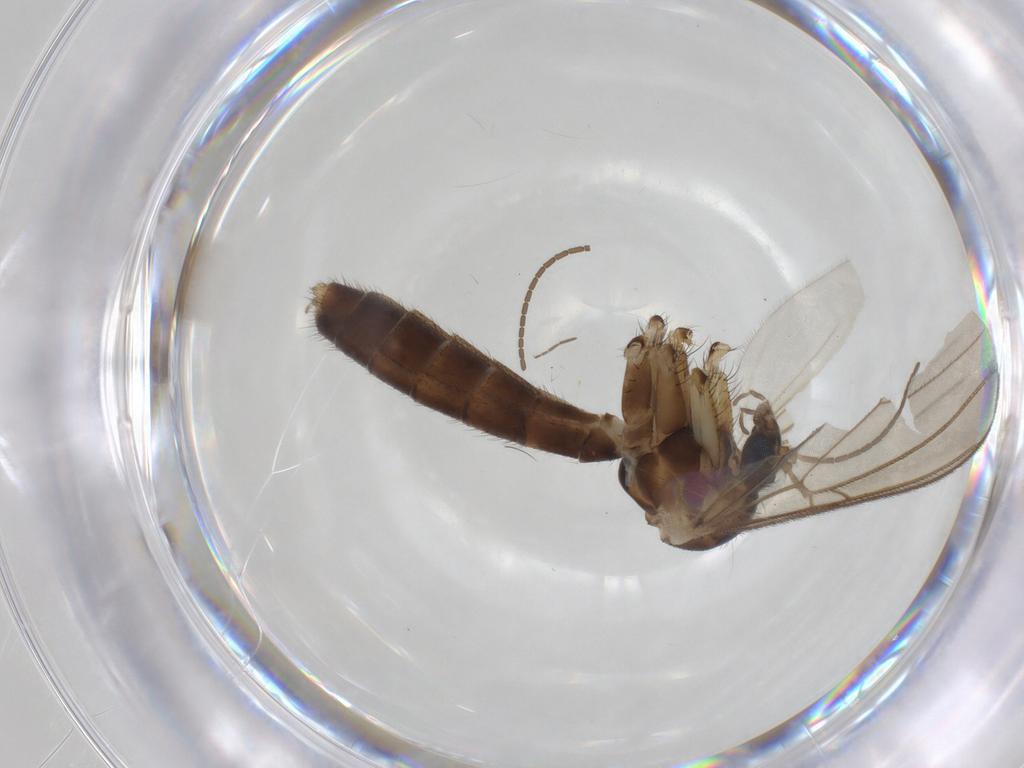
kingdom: Animalia
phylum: Arthropoda
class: Insecta
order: Diptera
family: Mycetophilidae
